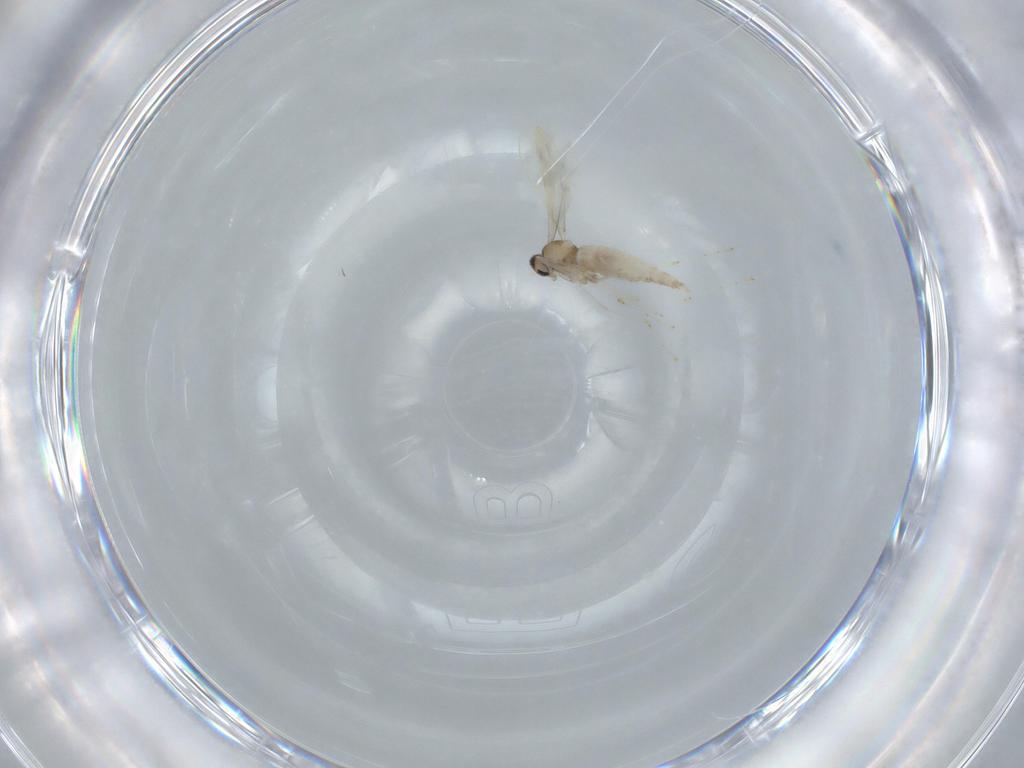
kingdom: Animalia
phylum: Arthropoda
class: Insecta
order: Diptera
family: Cecidomyiidae
